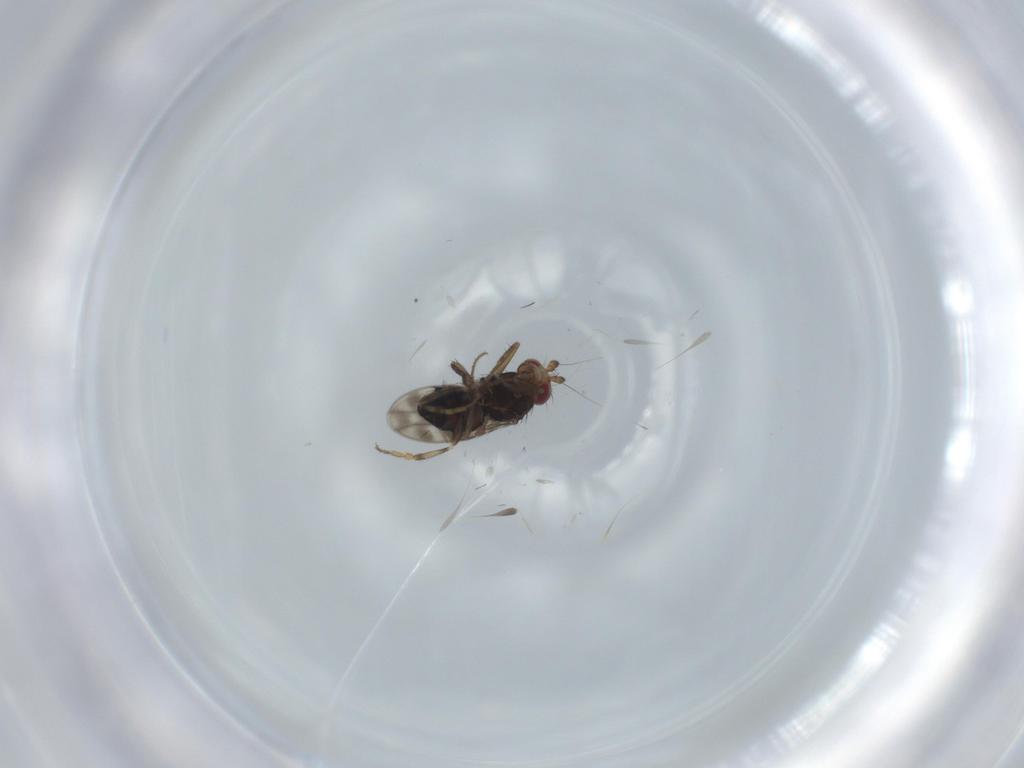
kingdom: Animalia
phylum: Arthropoda
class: Insecta
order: Diptera
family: Sphaeroceridae
